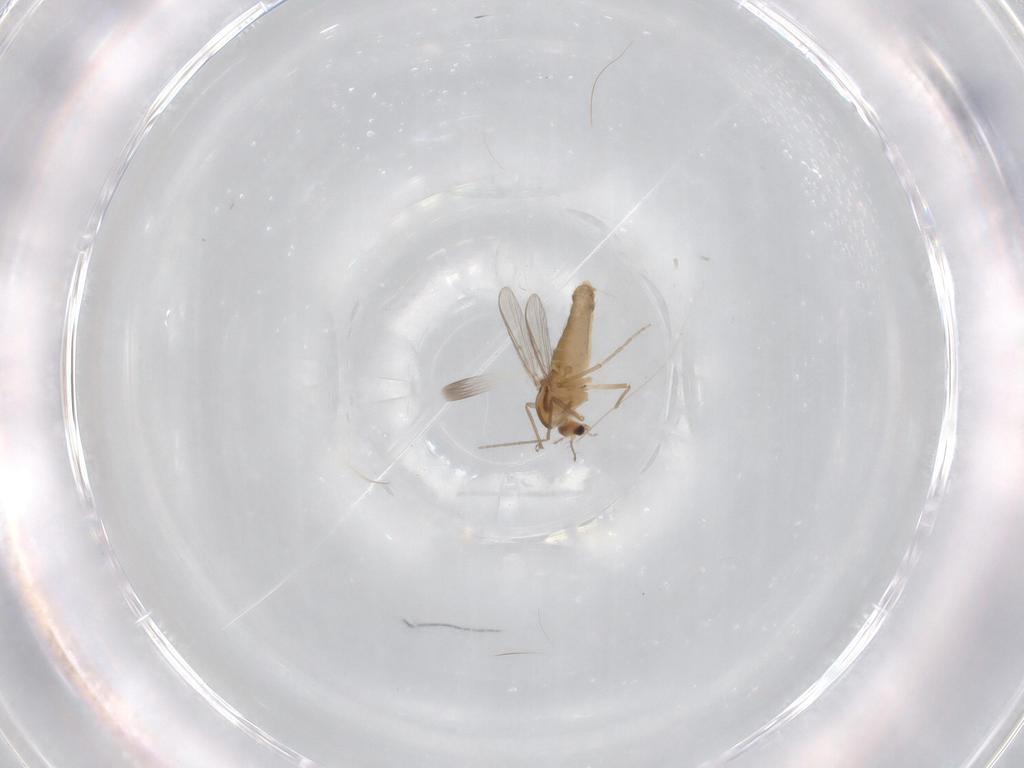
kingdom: Animalia
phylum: Arthropoda
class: Insecta
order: Diptera
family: Chironomidae
